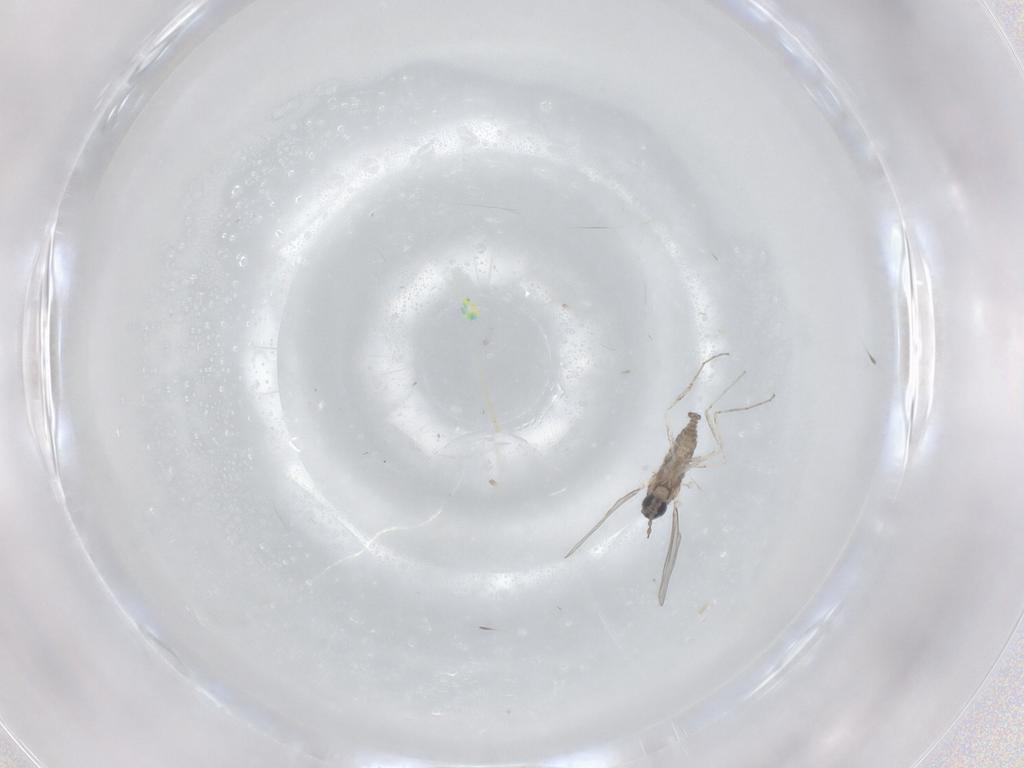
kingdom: Animalia
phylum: Arthropoda
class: Insecta
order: Diptera
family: Cecidomyiidae
